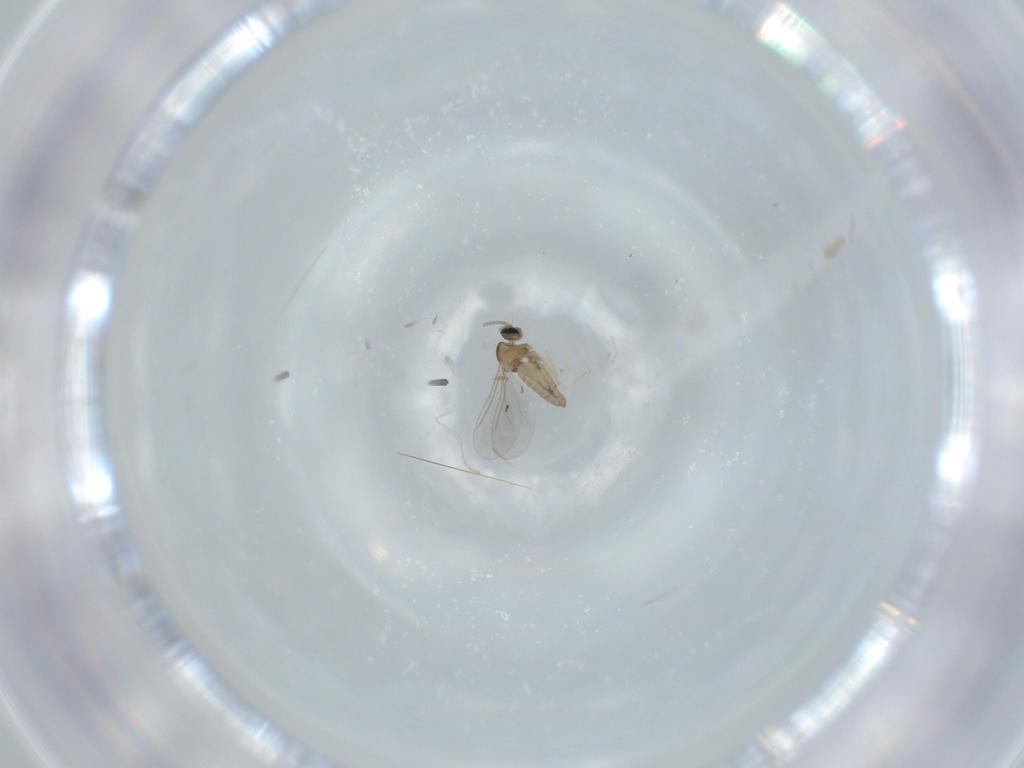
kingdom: Animalia
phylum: Arthropoda
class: Insecta
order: Diptera
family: Cecidomyiidae
